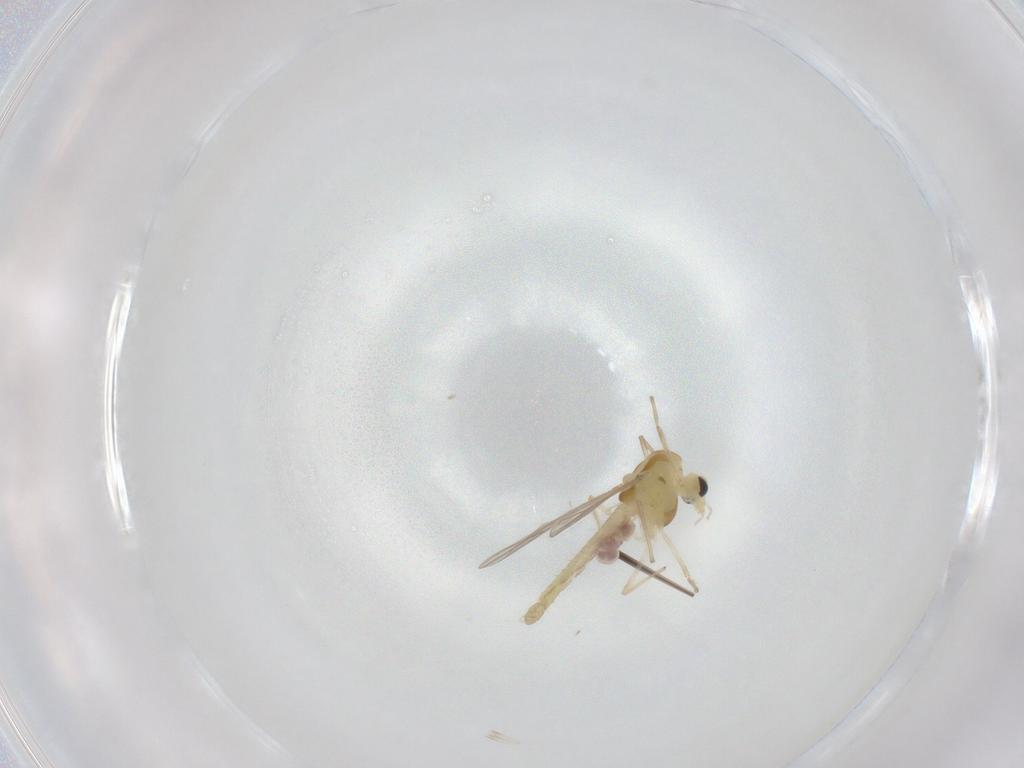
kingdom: Animalia
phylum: Arthropoda
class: Insecta
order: Diptera
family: Chironomidae
